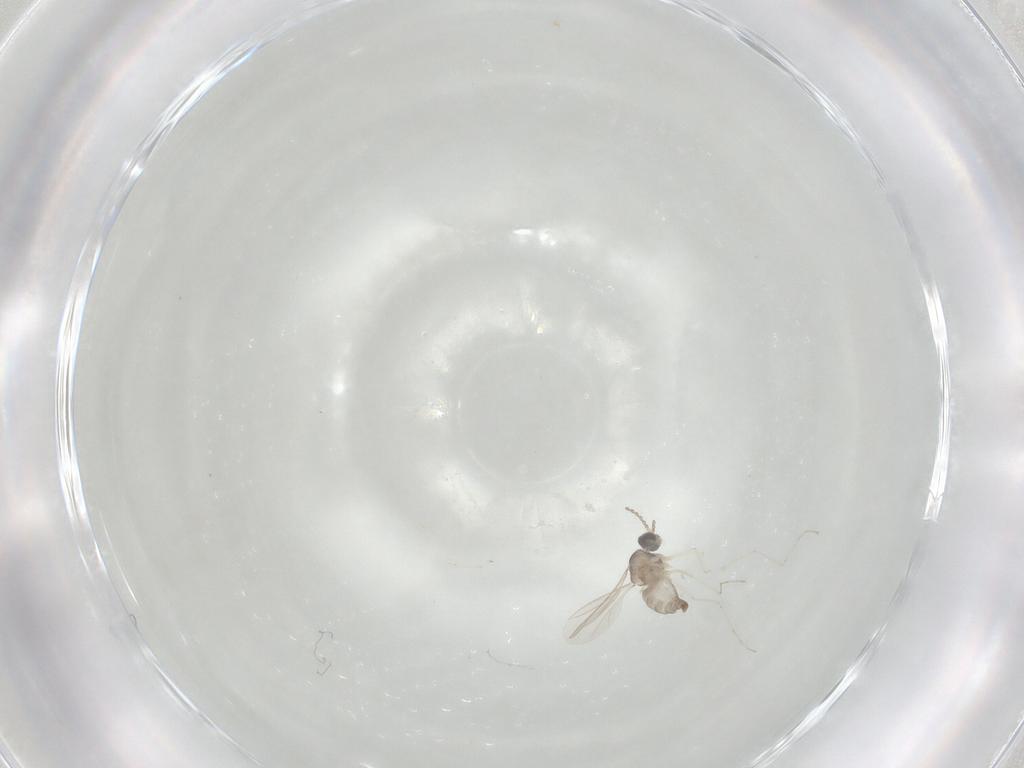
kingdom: Animalia
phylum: Arthropoda
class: Insecta
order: Diptera
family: Cecidomyiidae
